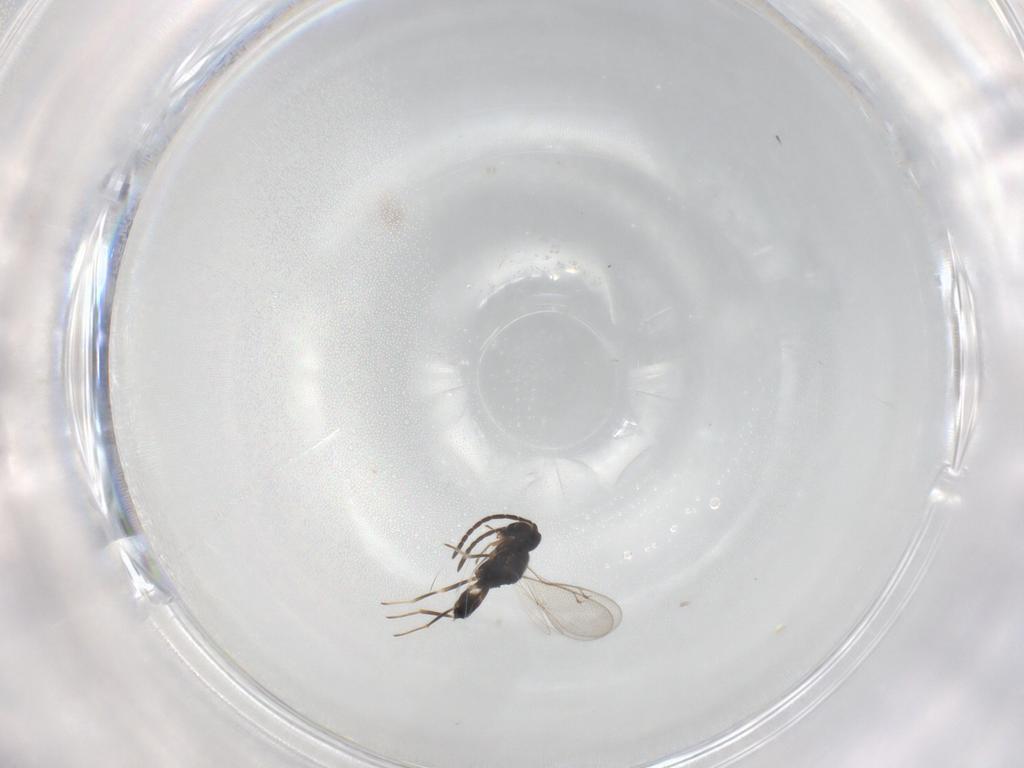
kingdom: Animalia
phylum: Arthropoda
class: Insecta
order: Hymenoptera
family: Eupelmidae
